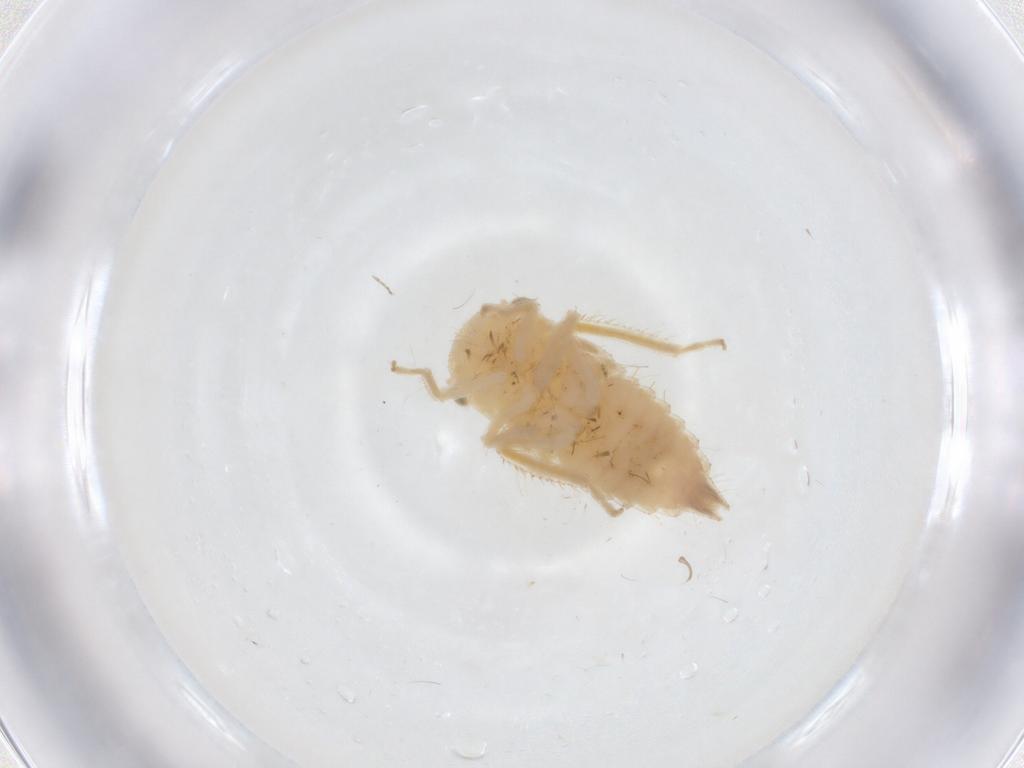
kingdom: Animalia
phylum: Arthropoda
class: Insecta
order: Hemiptera
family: Cicadellidae
